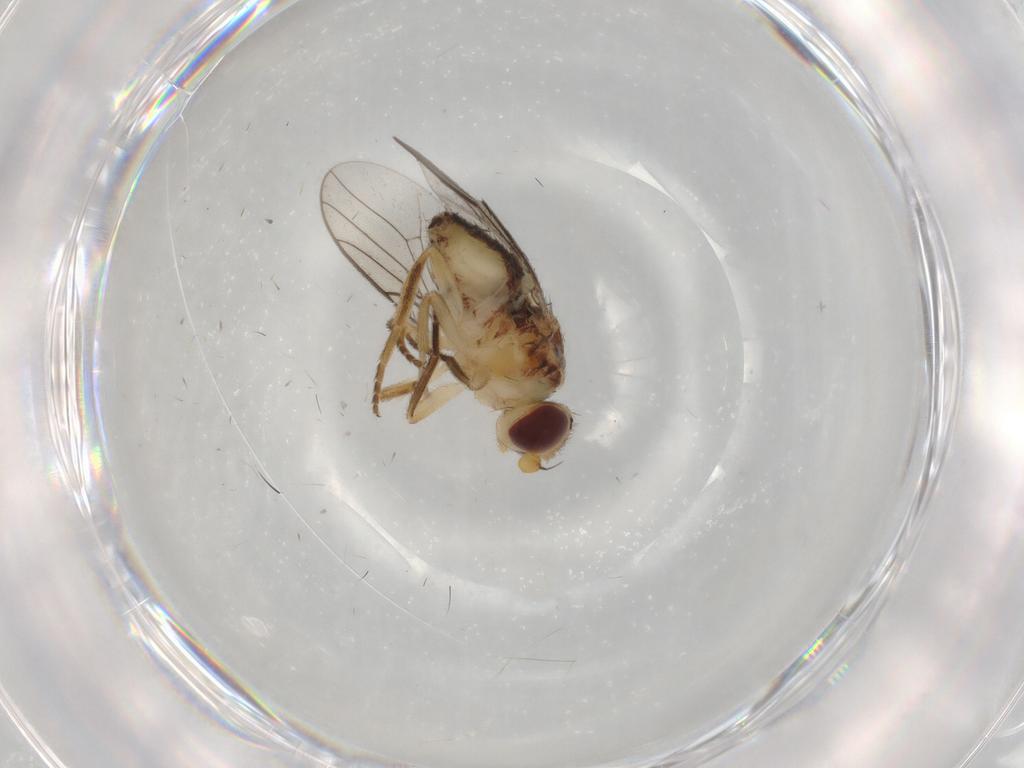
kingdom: Animalia
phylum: Arthropoda
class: Insecta
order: Diptera
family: Chloropidae
